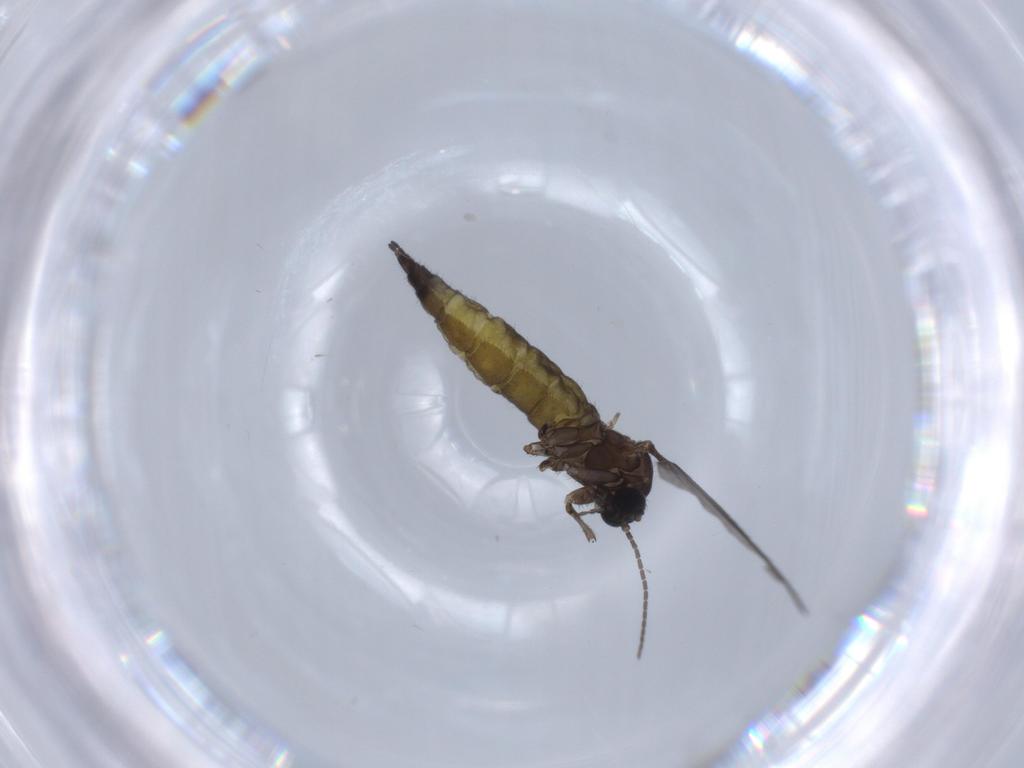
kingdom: Animalia
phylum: Arthropoda
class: Insecta
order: Diptera
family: Sciaridae
